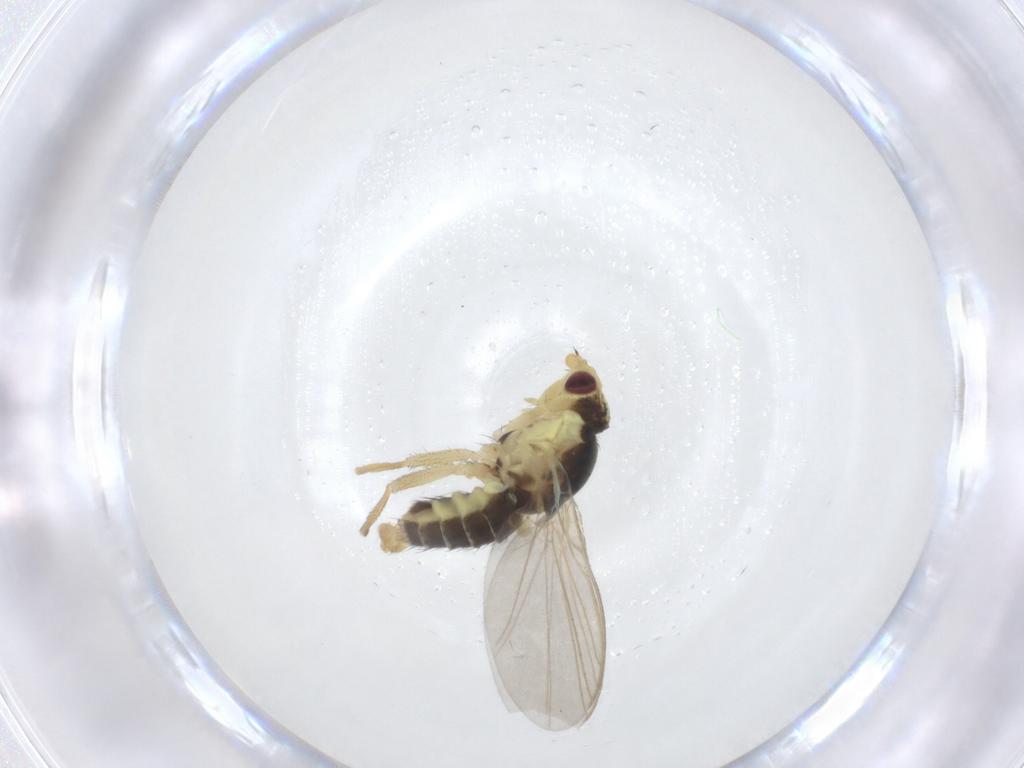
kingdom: Animalia
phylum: Arthropoda
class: Insecta
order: Diptera
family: Agromyzidae
